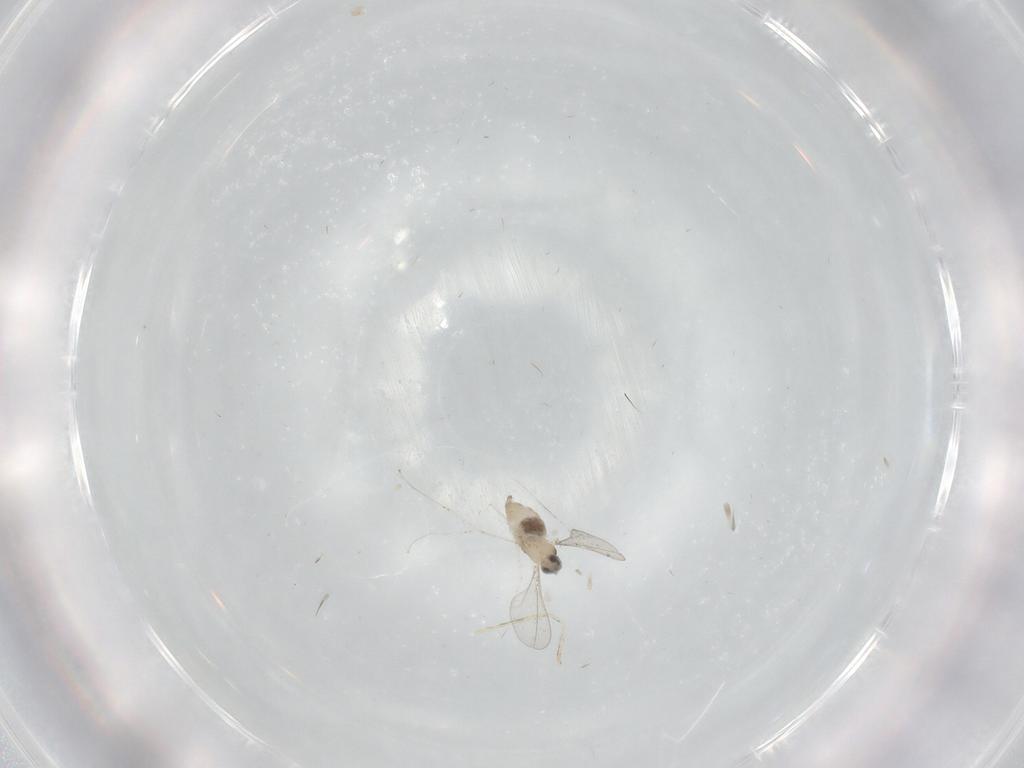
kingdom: Animalia
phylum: Arthropoda
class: Insecta
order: Diptera
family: Cecidomyiidae
